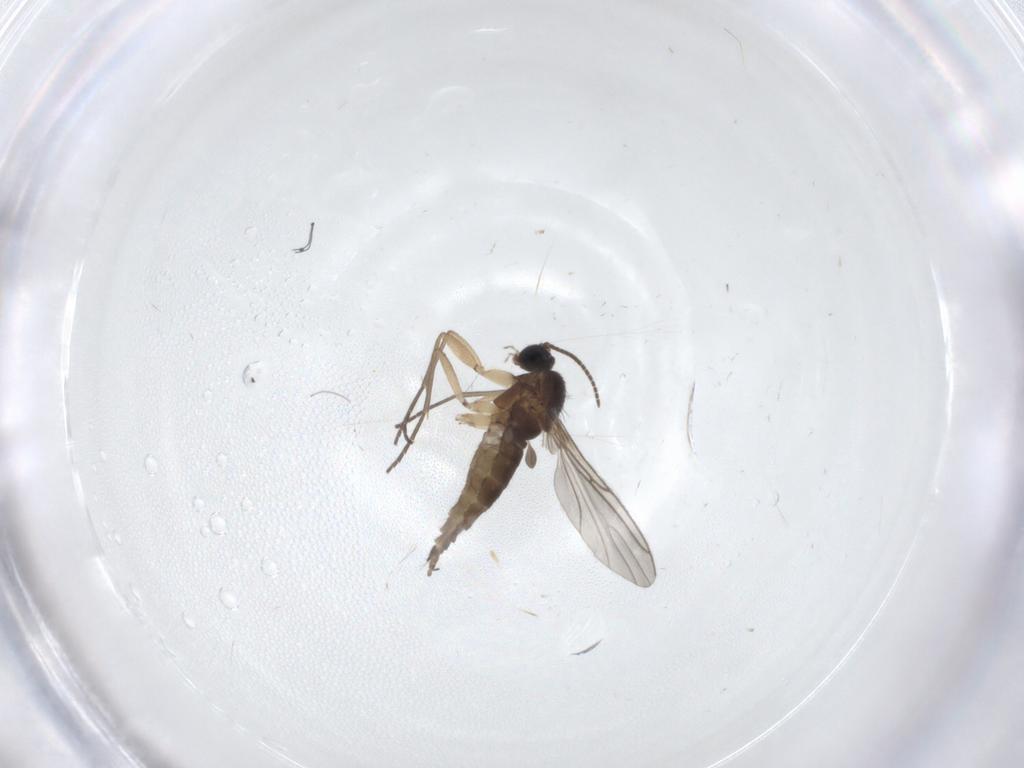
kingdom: Animalia
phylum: Arthropoda
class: Insecta
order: Diptera
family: Sciaridae
